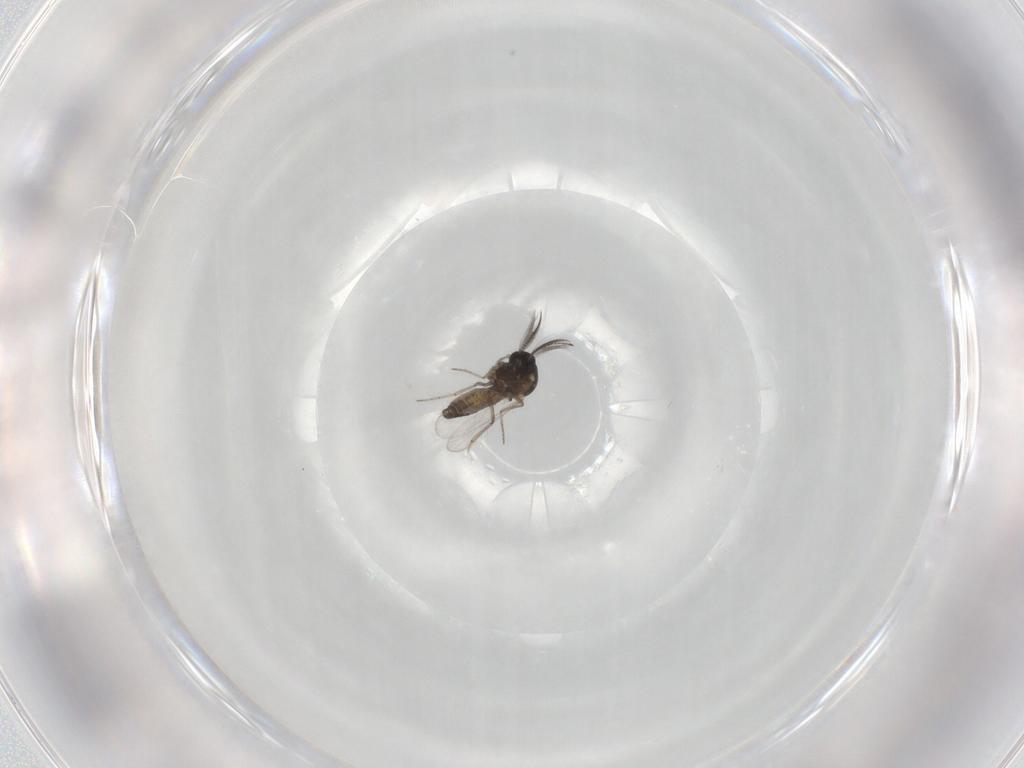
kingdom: Animalia
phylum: Arthropoda
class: Insecta
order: Diptera
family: Ceratopogonidae
